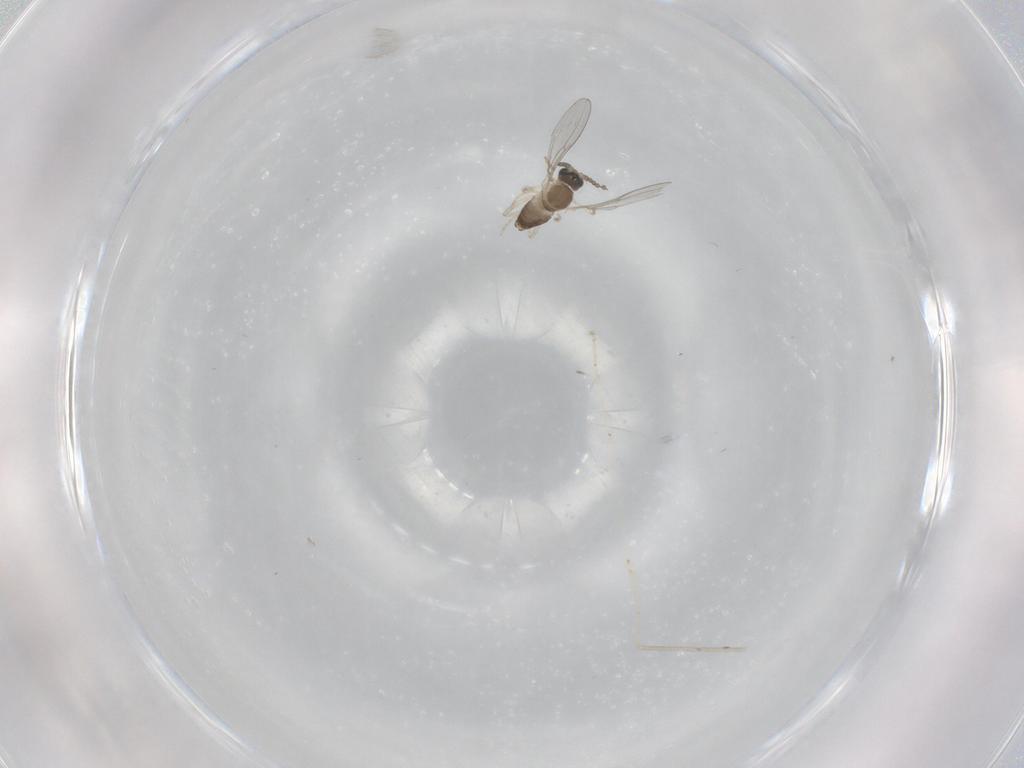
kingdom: Animalia
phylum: Arthropoda
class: Insecta
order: Diptera
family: Cecidomyiidae
